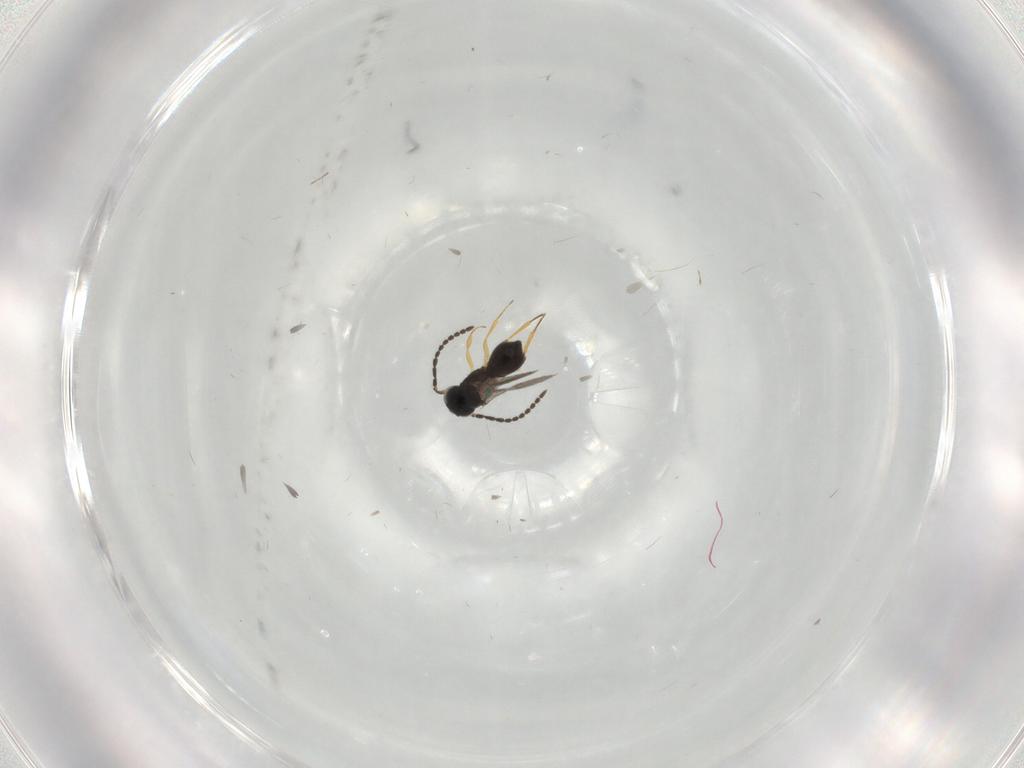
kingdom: Animalia
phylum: Arthropoda
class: Insecta
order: Hymenoptera
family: Scelionidae
